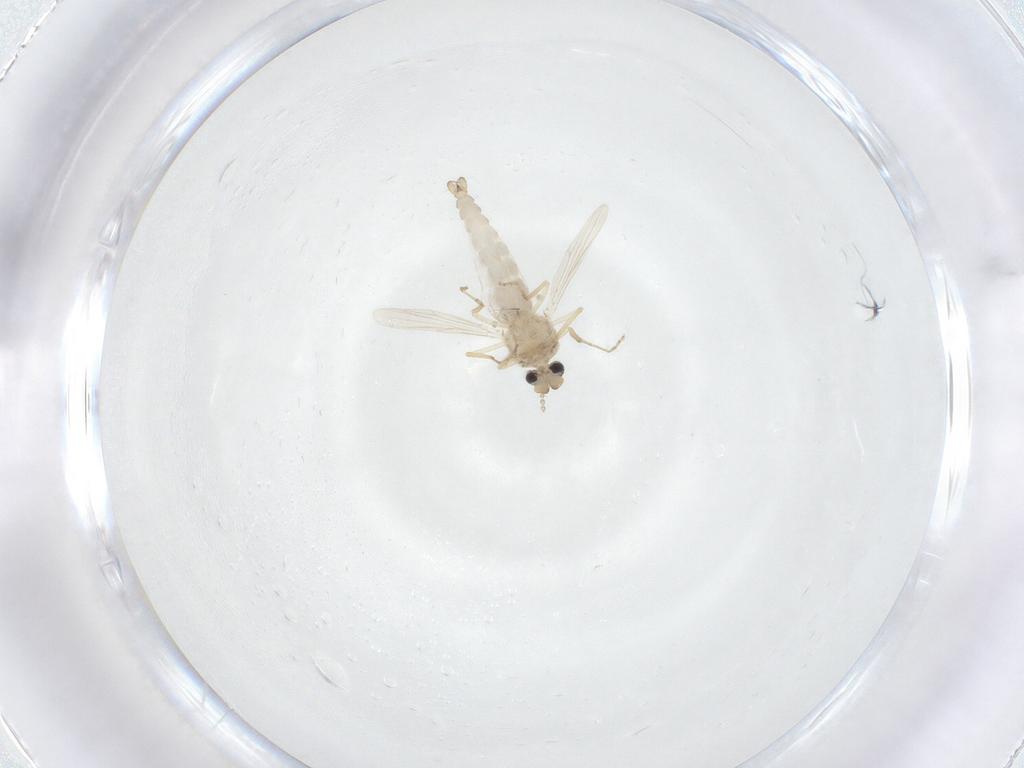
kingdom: Animalia
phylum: Arthropoda
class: Insecta
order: Diptera
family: Ceratopogonidae
